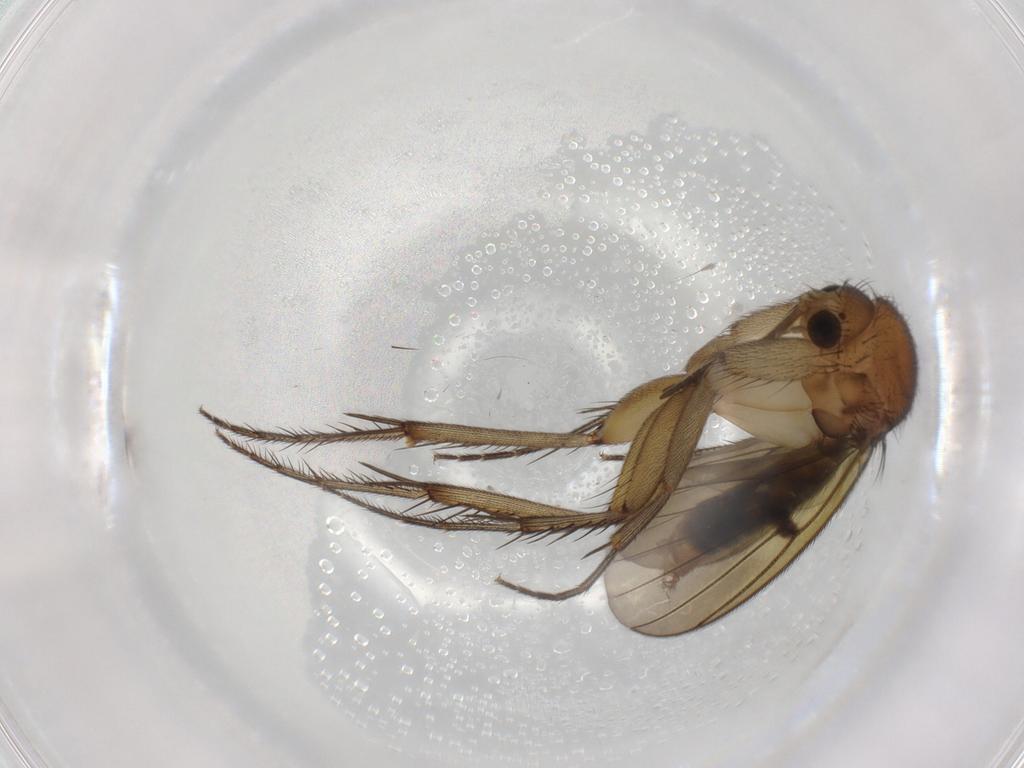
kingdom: Animalia
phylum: Arthropoda
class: Insecta
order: Diptera
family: Mycetophilidae
